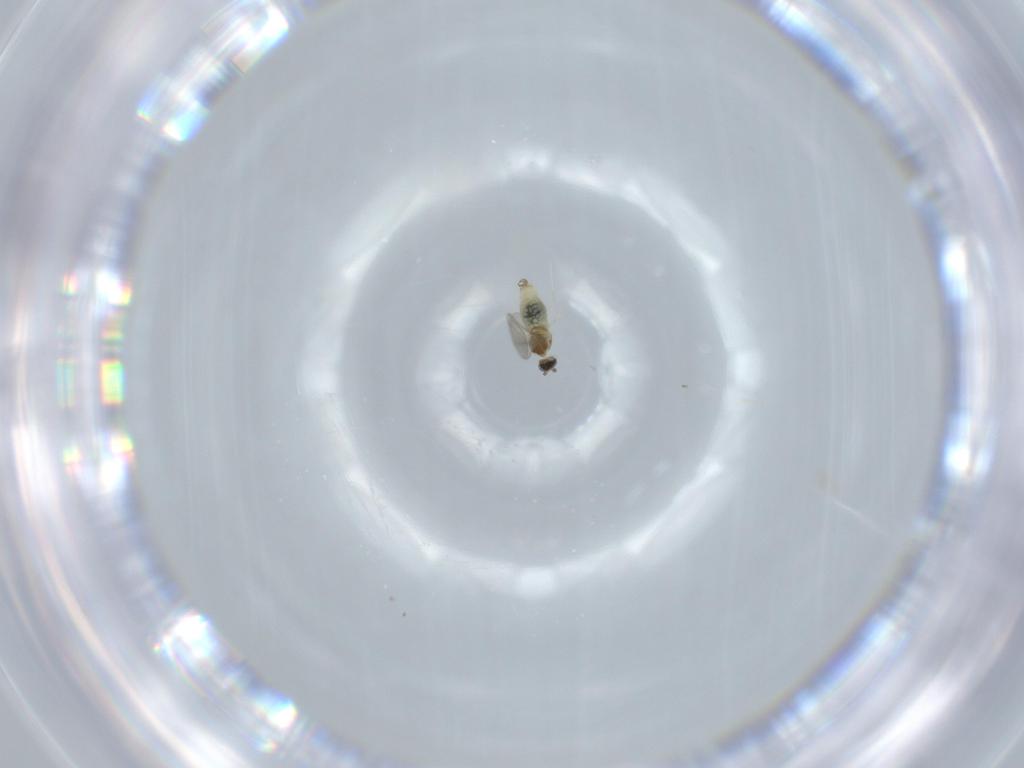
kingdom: Animalia
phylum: Arthropoda
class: Insecta
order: Diptera
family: Cecidomyiidae
